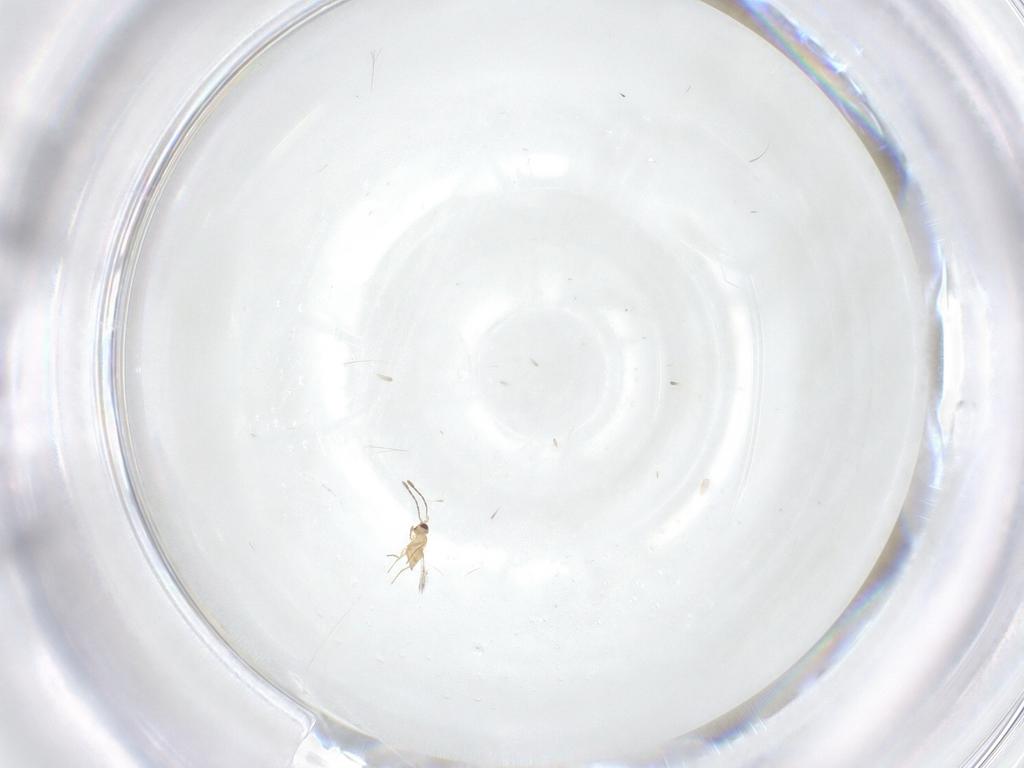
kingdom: Animalia
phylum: Arthropoda
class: Insecta
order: Hymenoptera
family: Mymaridae
